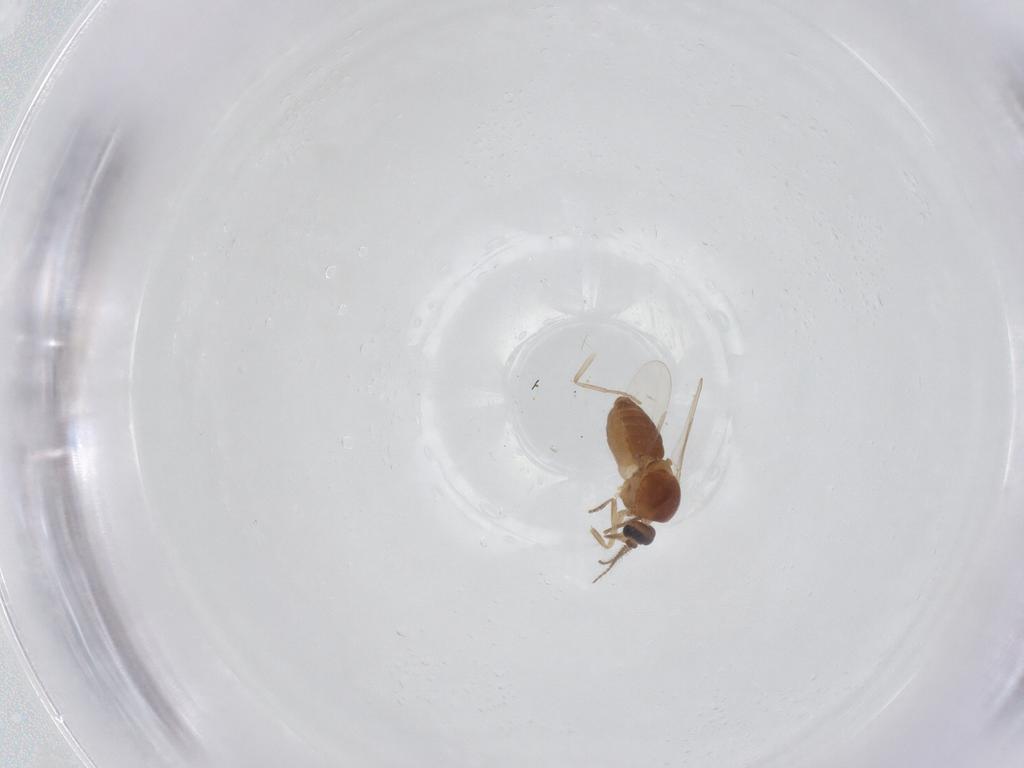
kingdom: Animalia
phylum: Arthropoda
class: Insecta
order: Diptera
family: Ceratopogonidae
